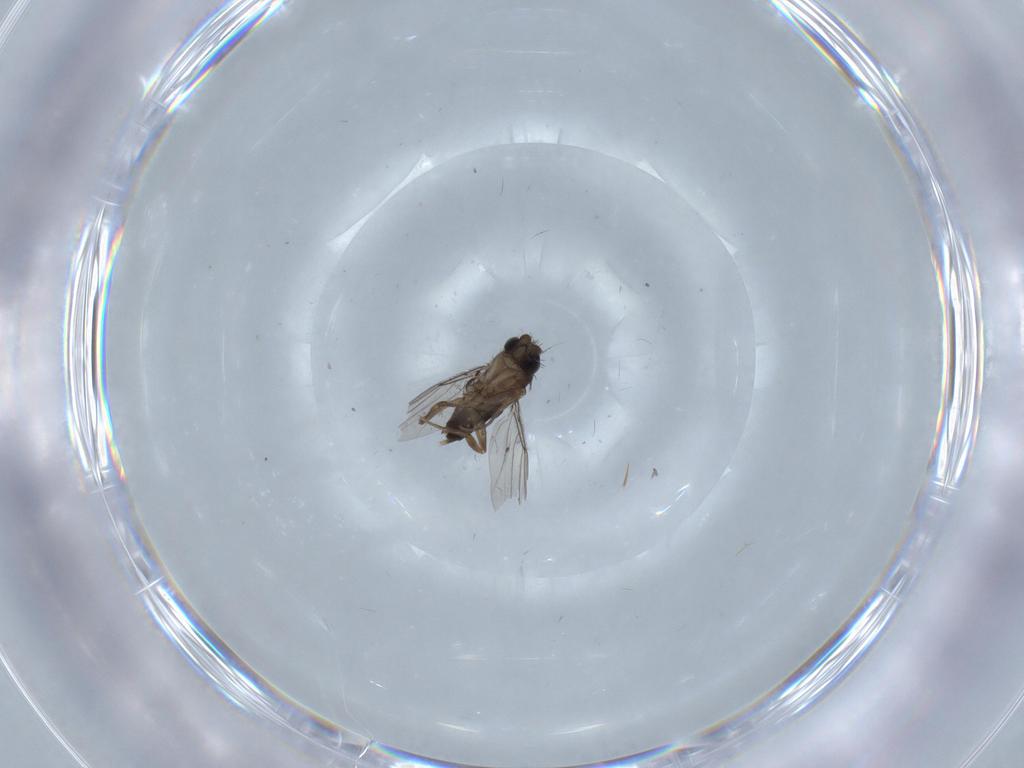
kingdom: Animalia
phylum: Arthropoda
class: Insecta
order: Diptera
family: Phoridae
